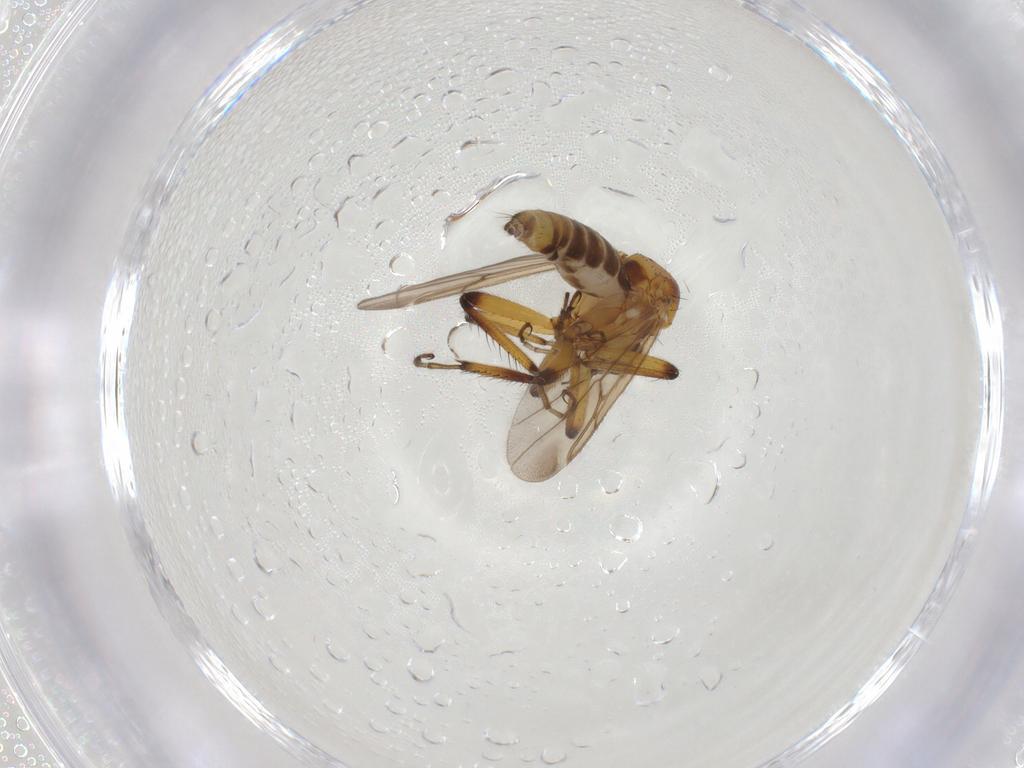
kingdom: Animalia
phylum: Arthropoda
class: Insecta
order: Diptera
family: Ceratopogonidae
